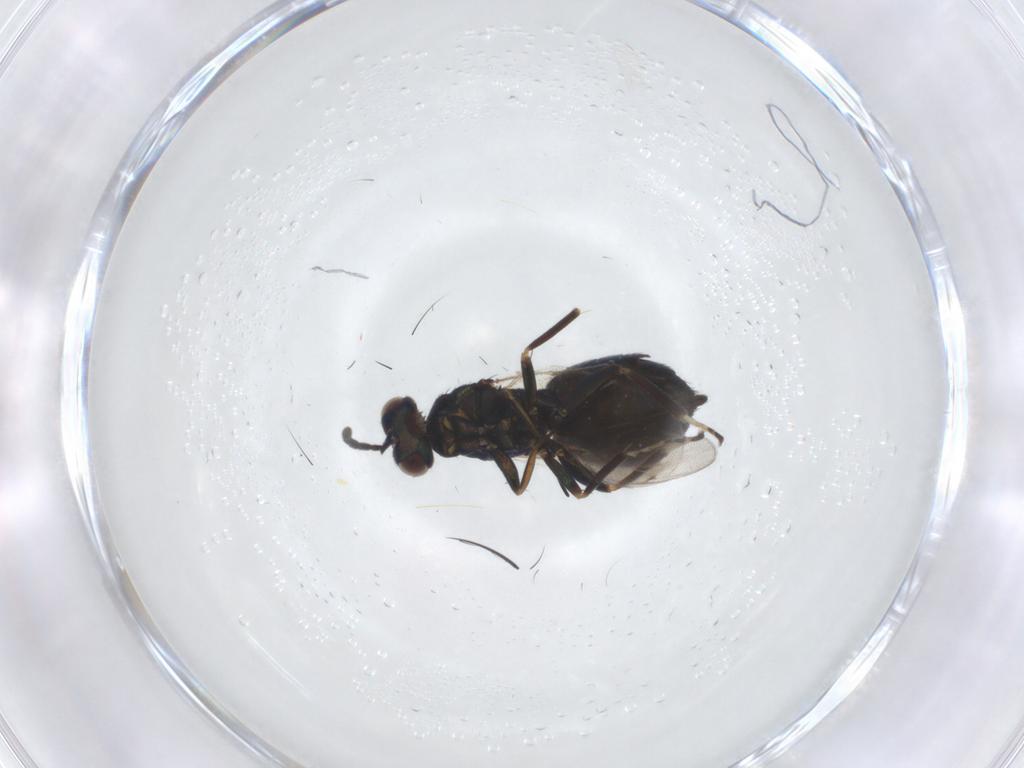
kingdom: Animalia
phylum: Arthropoda
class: Insecta
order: Hymenoptera
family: Eulophidae
